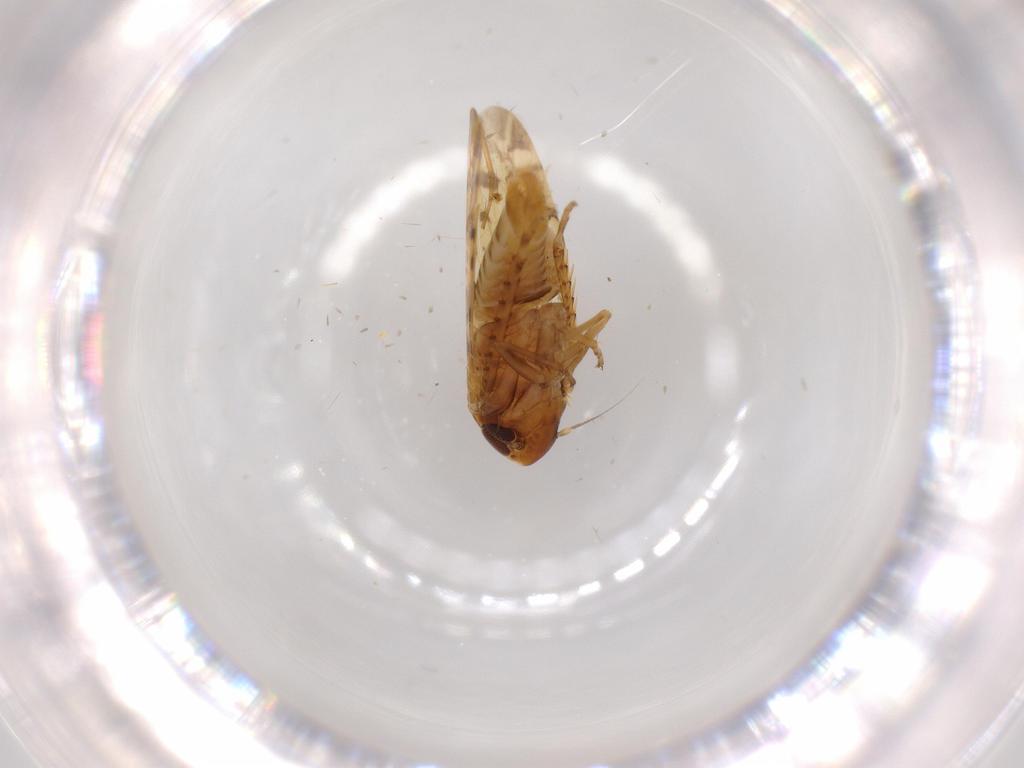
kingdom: Animalia
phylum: Arthropoda
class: Insecta
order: Hemiptera
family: Cicadellidae
